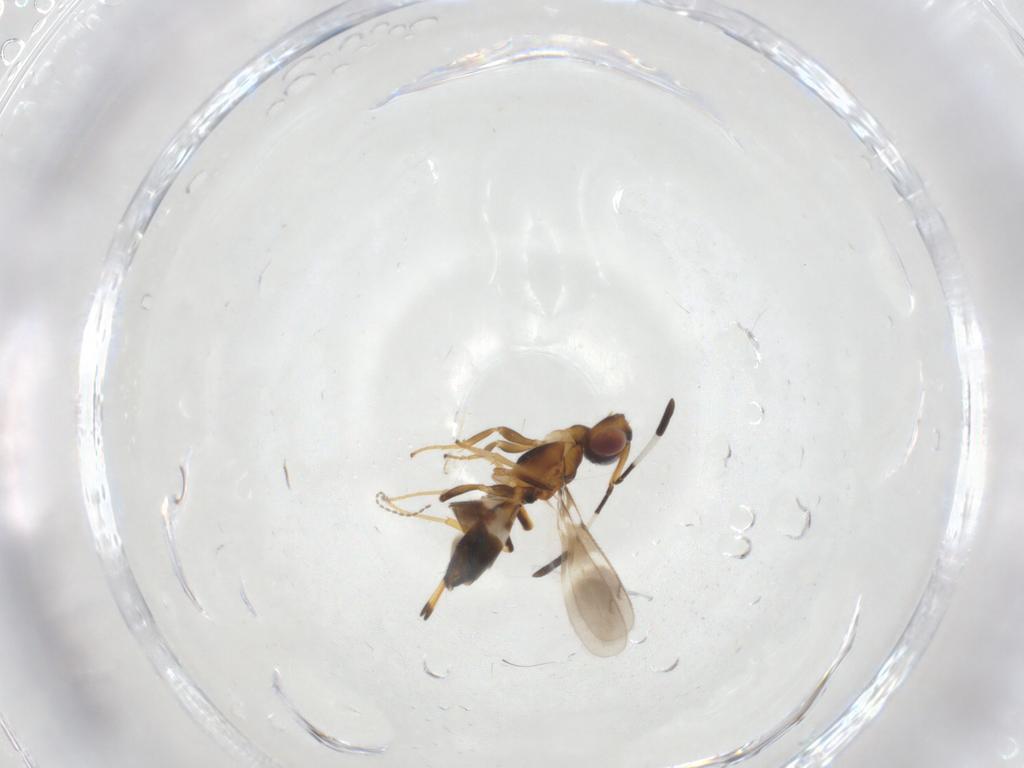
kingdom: Animalia
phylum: Arthropoda
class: Insecta
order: Hymenoptera
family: Eupelmidae
